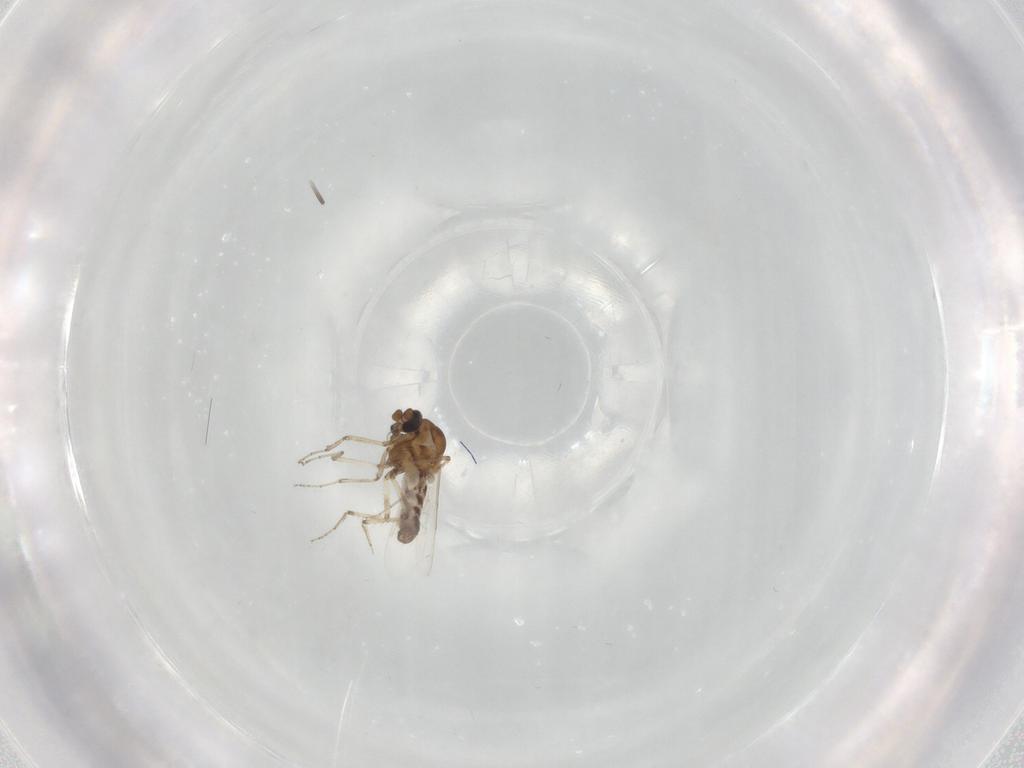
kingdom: Animalia
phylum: Arthropoda
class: Insecta
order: Diptera
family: Ceratopogonidae
